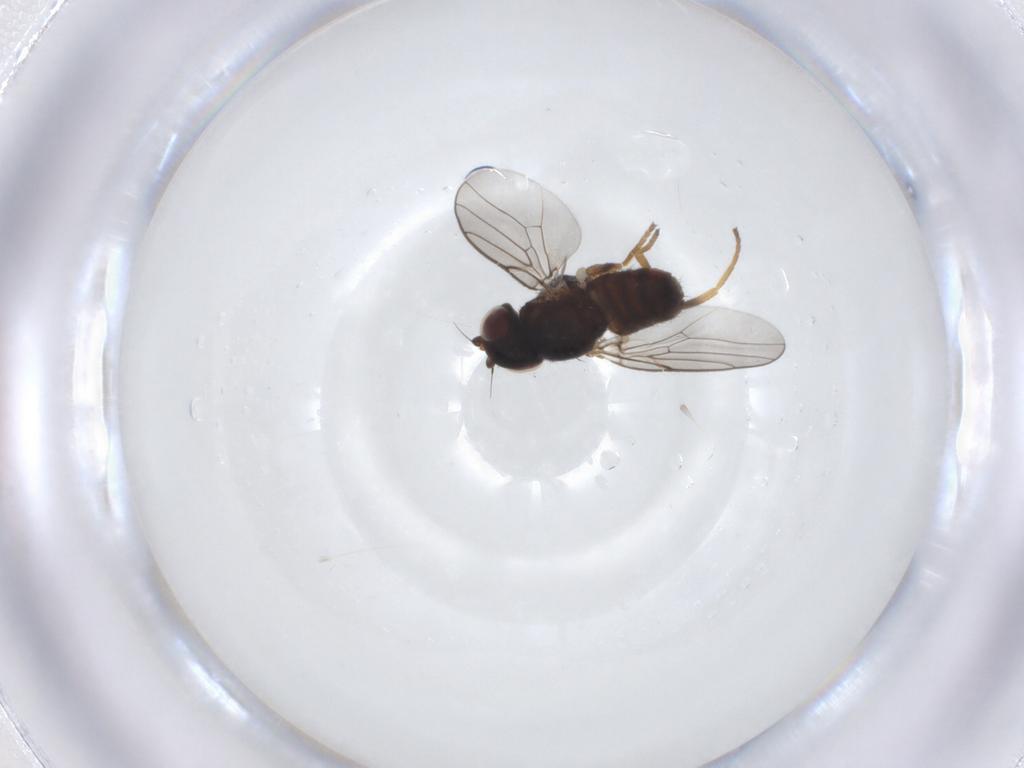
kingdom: Animalia
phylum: Arthropoda
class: Insecta
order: Diptera
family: Chloropidae
